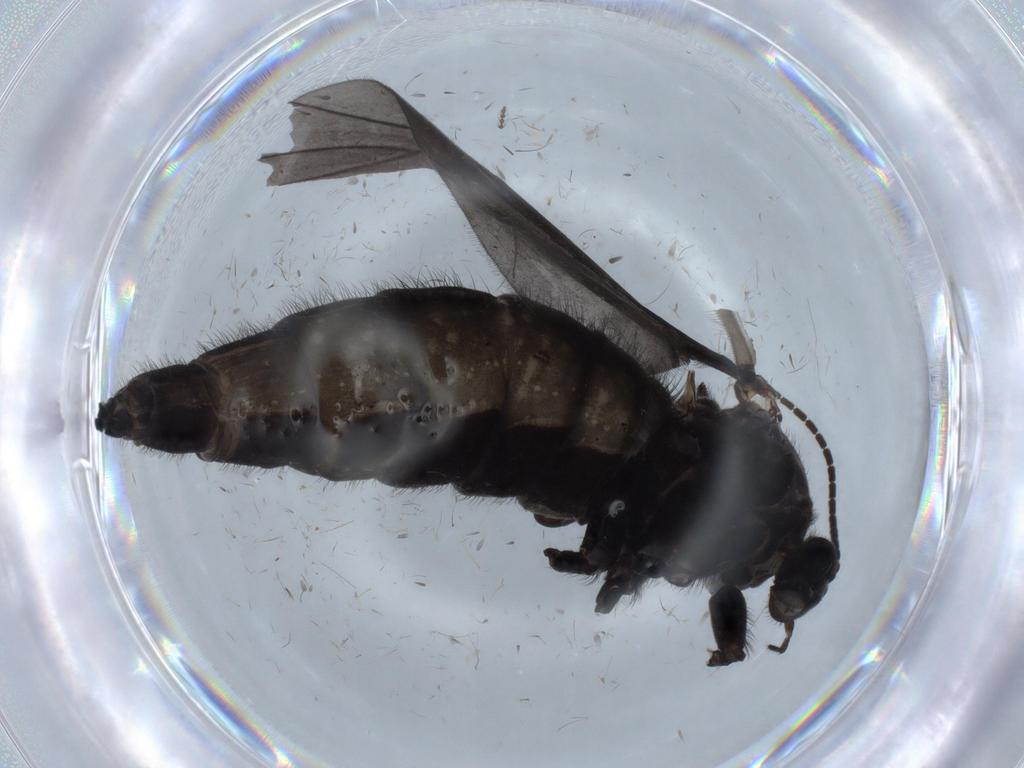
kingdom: Animalia
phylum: Arthropoda
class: Insecta
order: Diptera
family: Sciaridae
